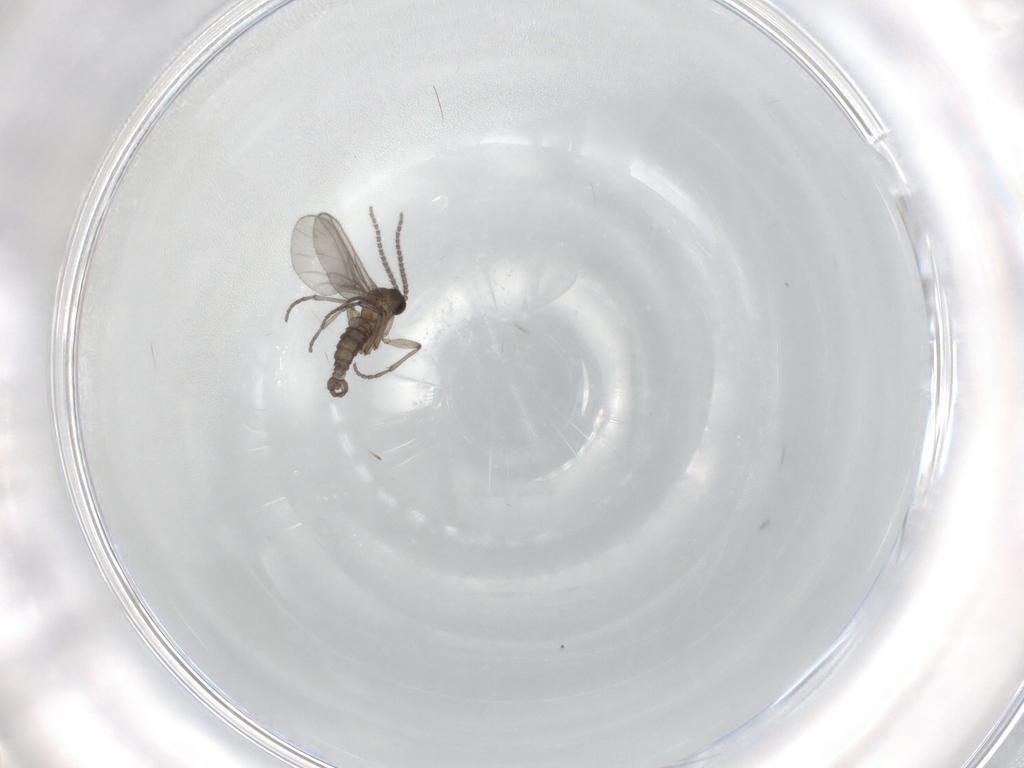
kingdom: Animalia
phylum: Arthropoda
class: Insecta
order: Diptera
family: Sciaridae
